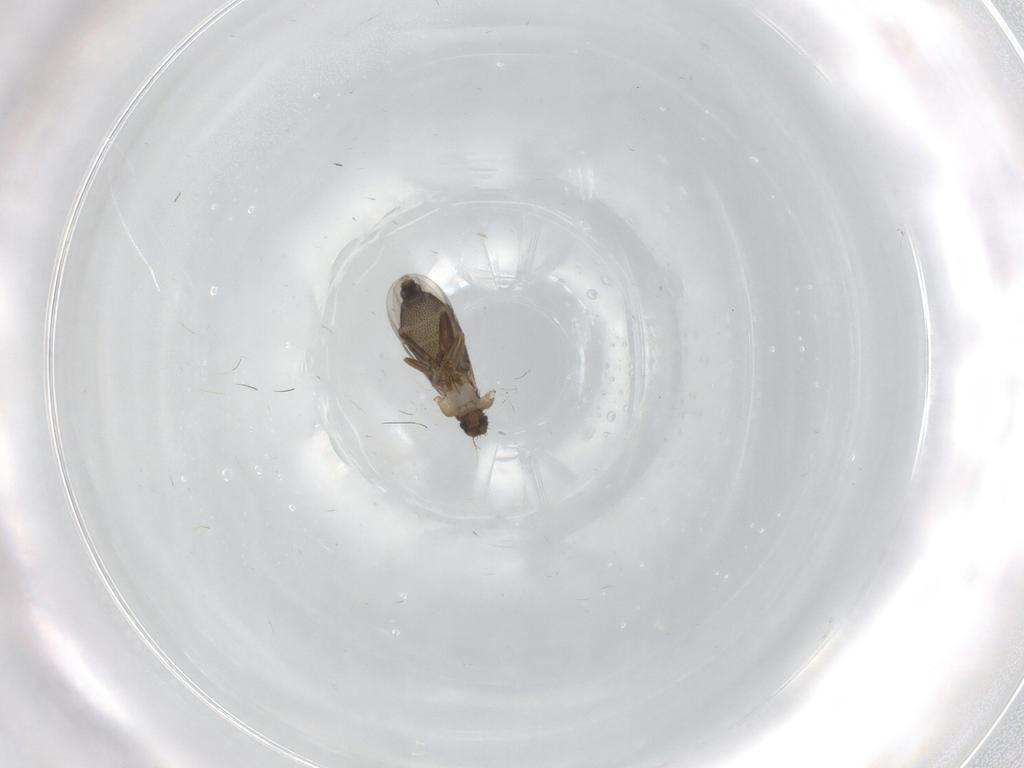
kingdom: Animalia
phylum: Arthropoda
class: Insecta
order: Diptera
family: Phoridae
